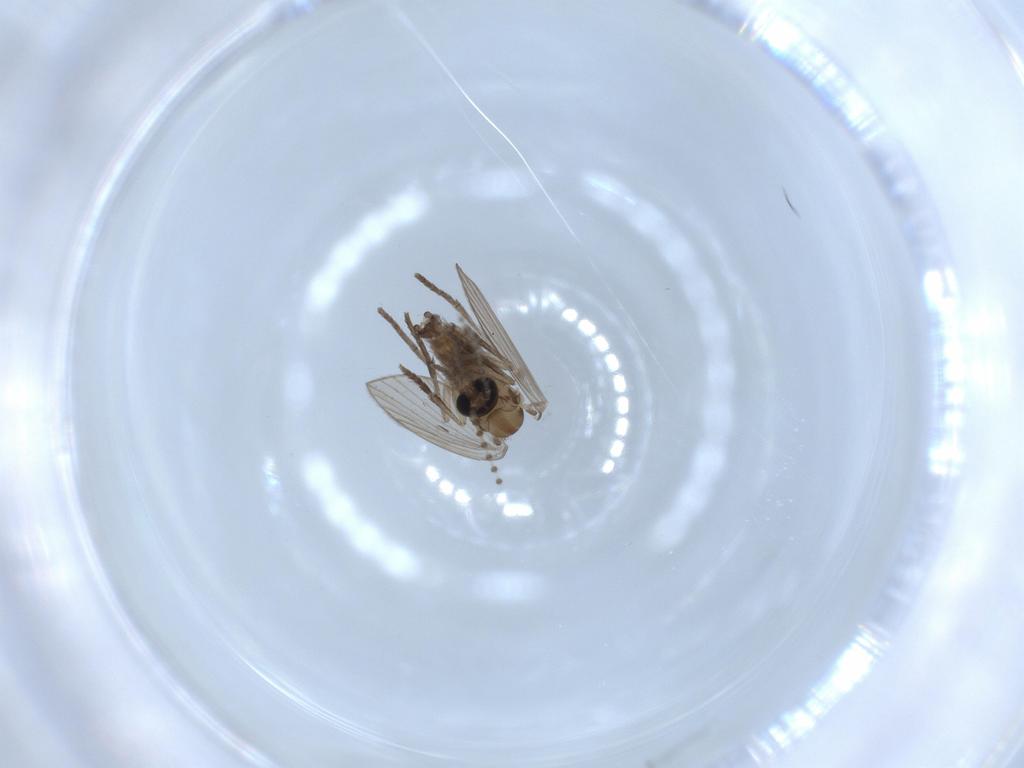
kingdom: Animalia
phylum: Arthropoda
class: Insecta
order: Diptera
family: Psychodidae
